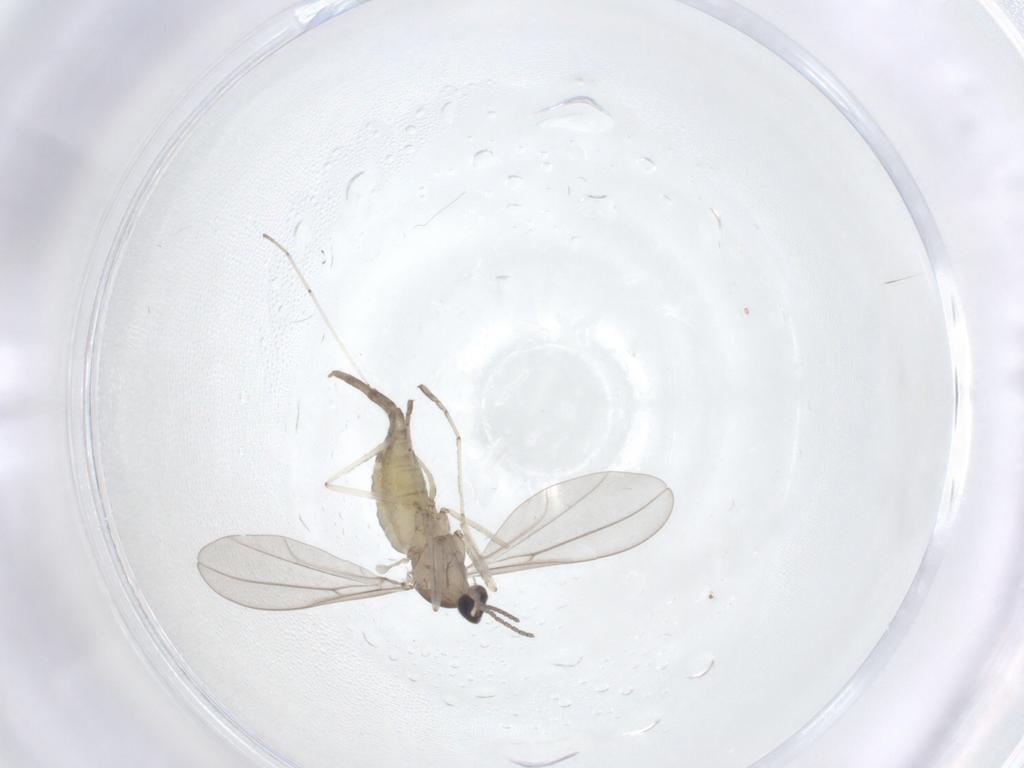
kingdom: Animalia
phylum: Arthropoda
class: Insecta
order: Diptera
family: Cecidomyiidae
